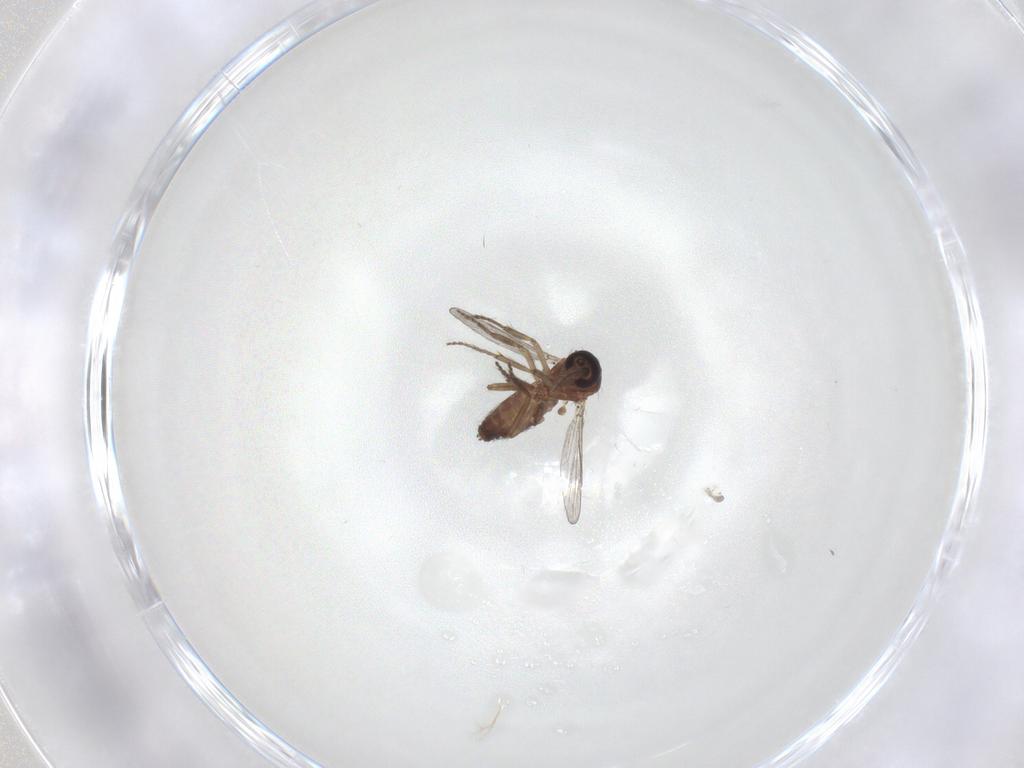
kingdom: Animalia
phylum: Arthropoda
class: Insecta
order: Diptera
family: Ceratopogonidae
